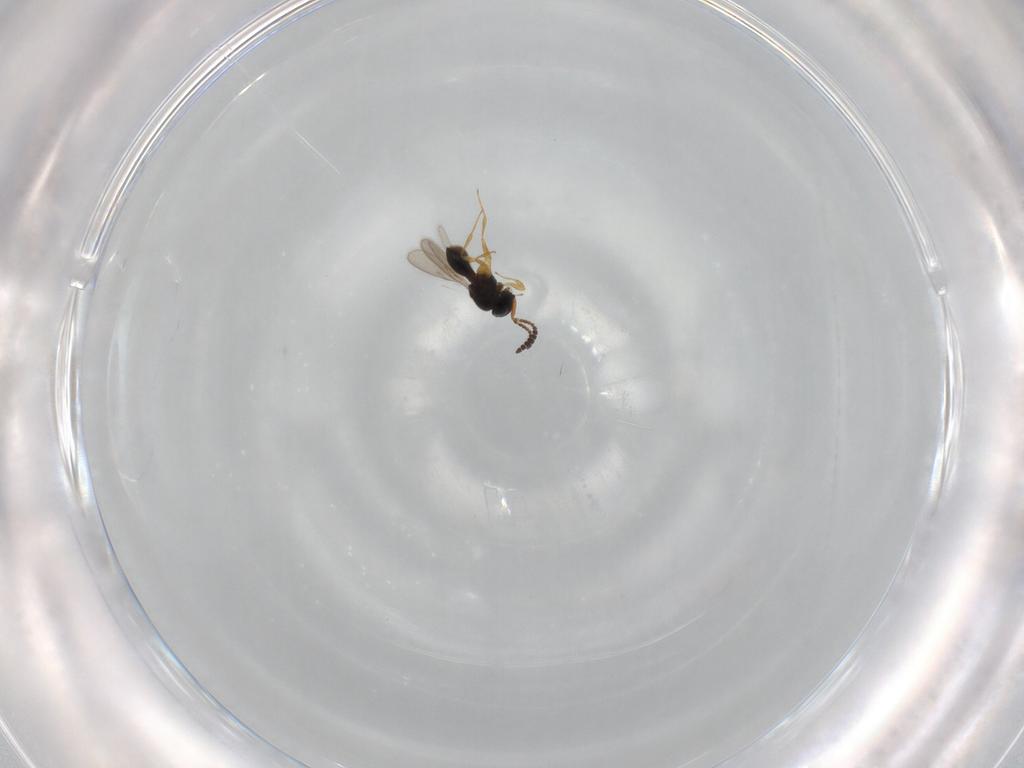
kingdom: Animalia
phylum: Arthropoda
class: Insecta
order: Hymenoptera
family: Scelionidae
